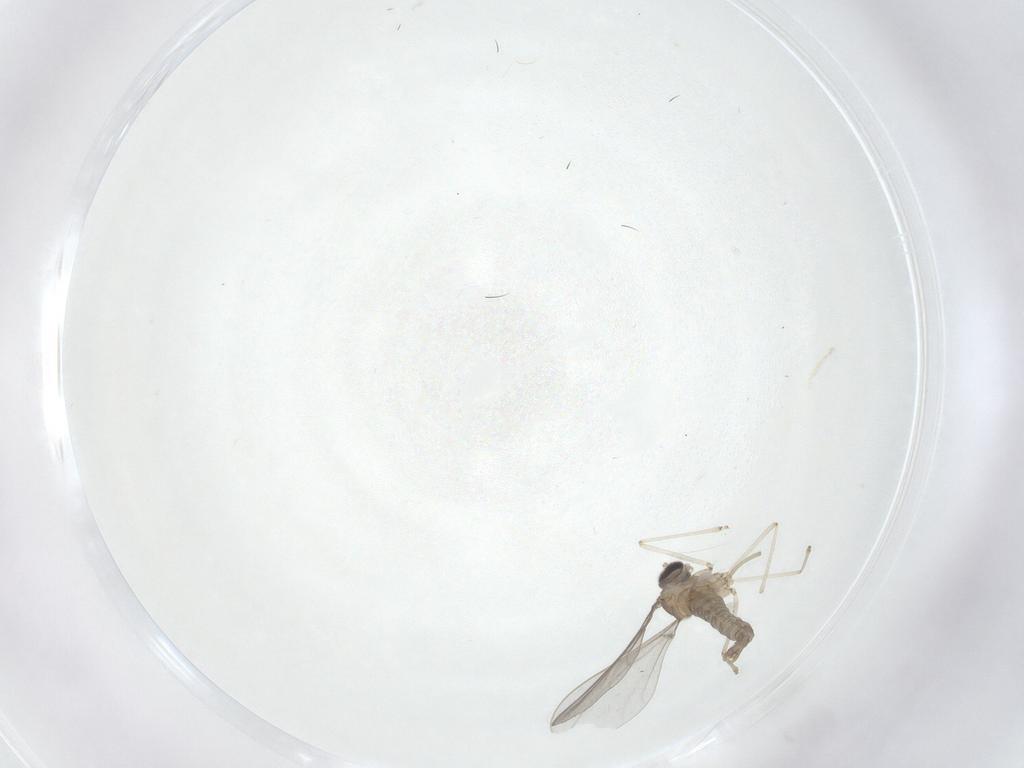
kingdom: Animalia
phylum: Arthropoda
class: Insecta
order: Diptera
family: Cecidomyiidae
